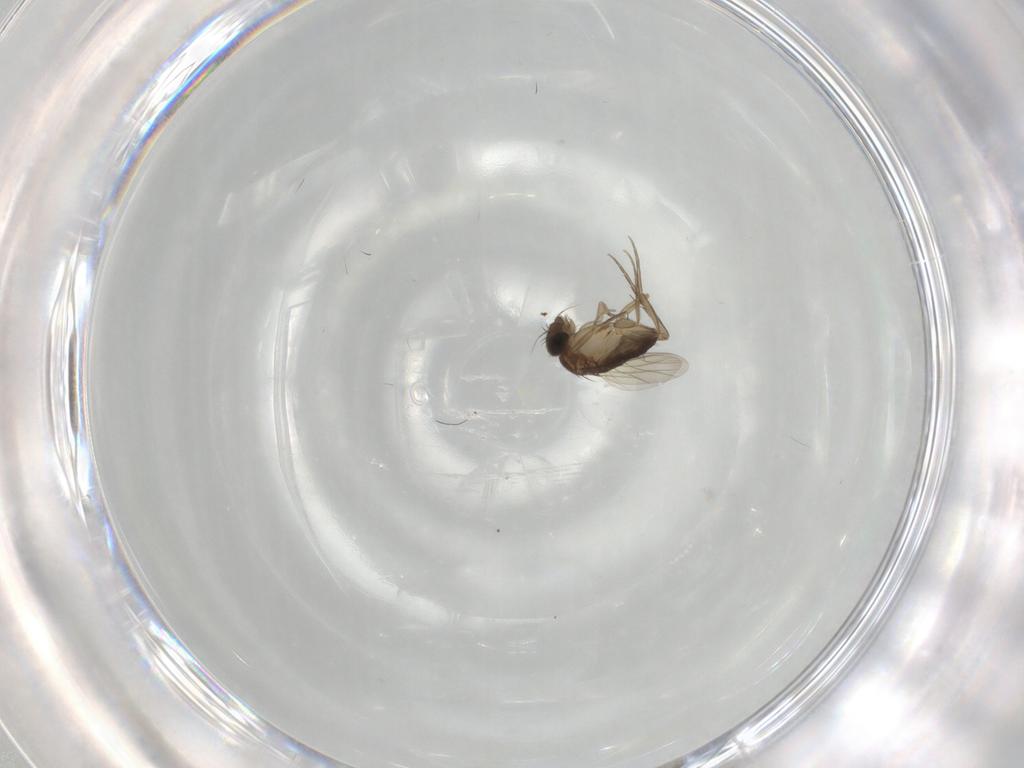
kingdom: Animalia
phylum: Arthropoda
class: Insecta
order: Diptera
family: Phoridae
